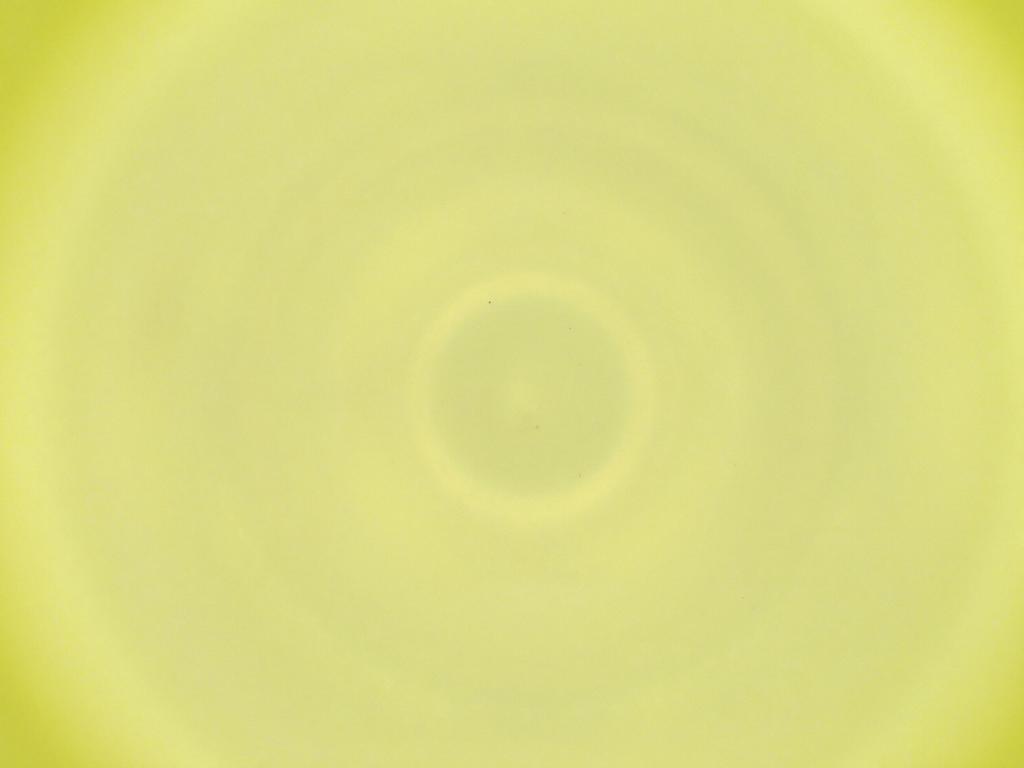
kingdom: Animalia
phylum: Arthropoda
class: Insecta
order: Diptera
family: Cecidomyiidae
